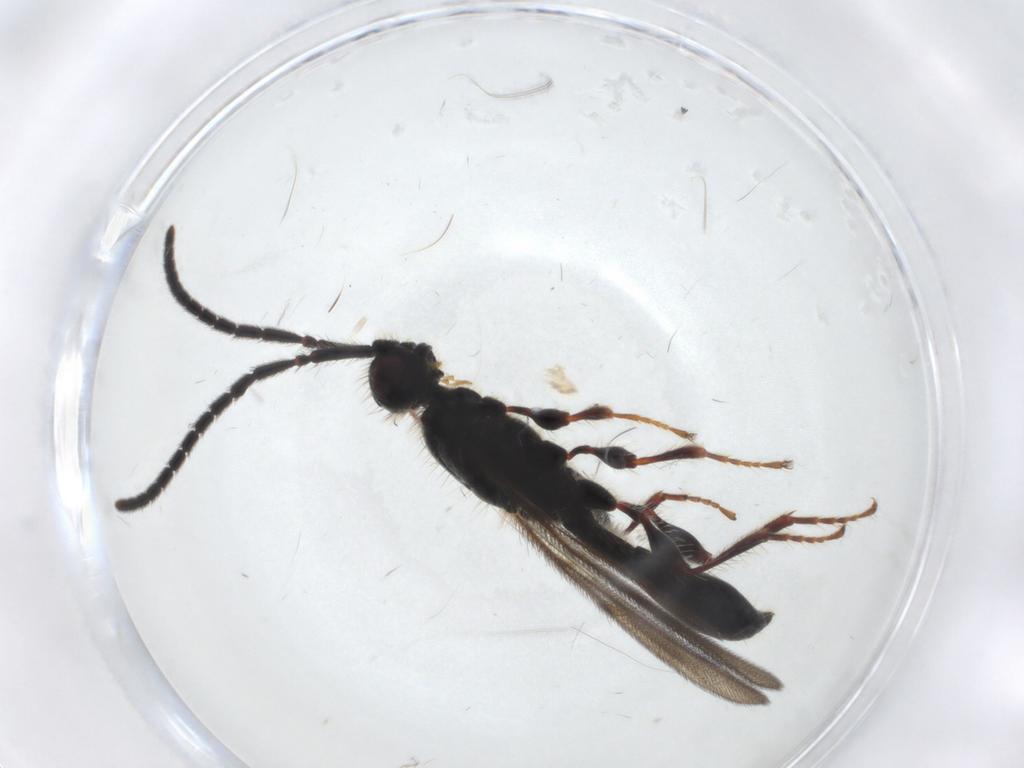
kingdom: Animalia
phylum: Arthropoda
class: Insecta
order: Hymenoptera
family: Diapriidae
